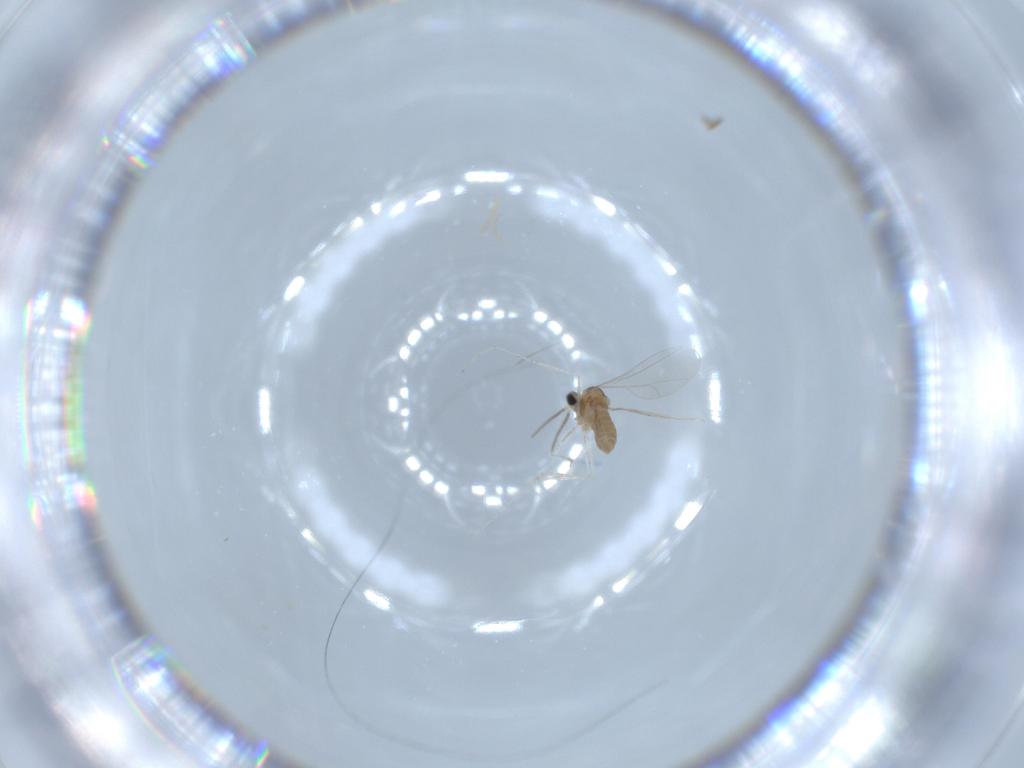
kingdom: Animalia
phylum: Arthropoda
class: Insecta
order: Diptera
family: Cecidomyiidae
